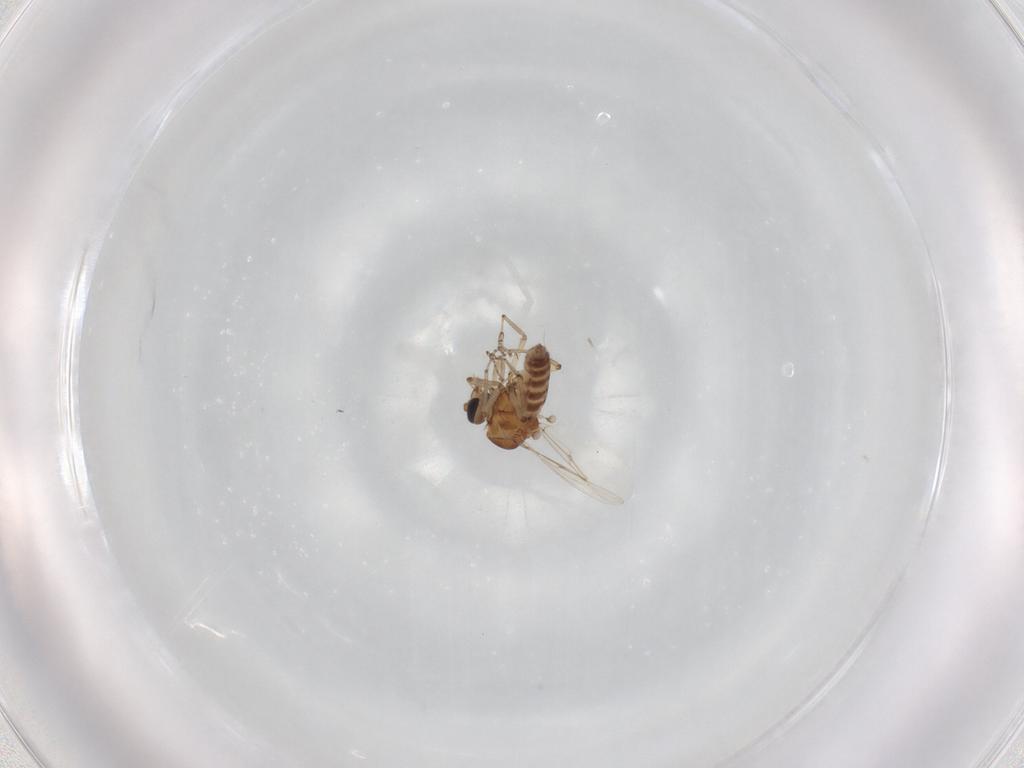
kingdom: Animalia
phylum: Arthropoda
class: Insecta
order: Diptera
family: Ceratopogonidae
